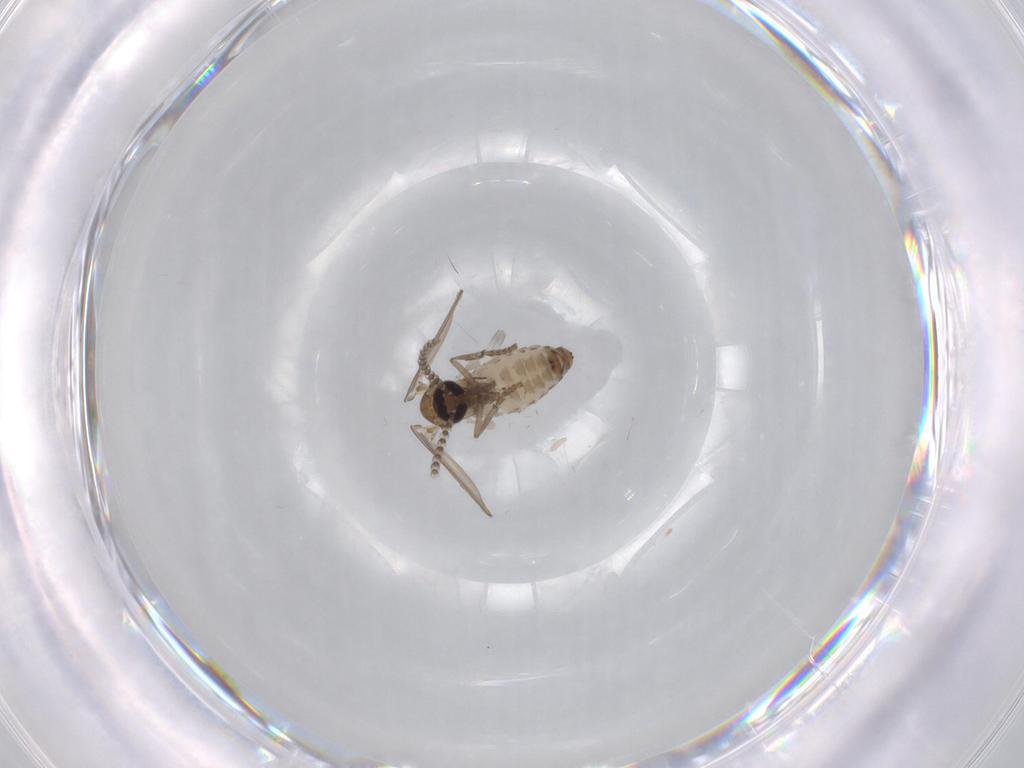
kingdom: Animalia
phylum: Arthropoda
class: Insecta
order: Diptera
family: Psychodidae
